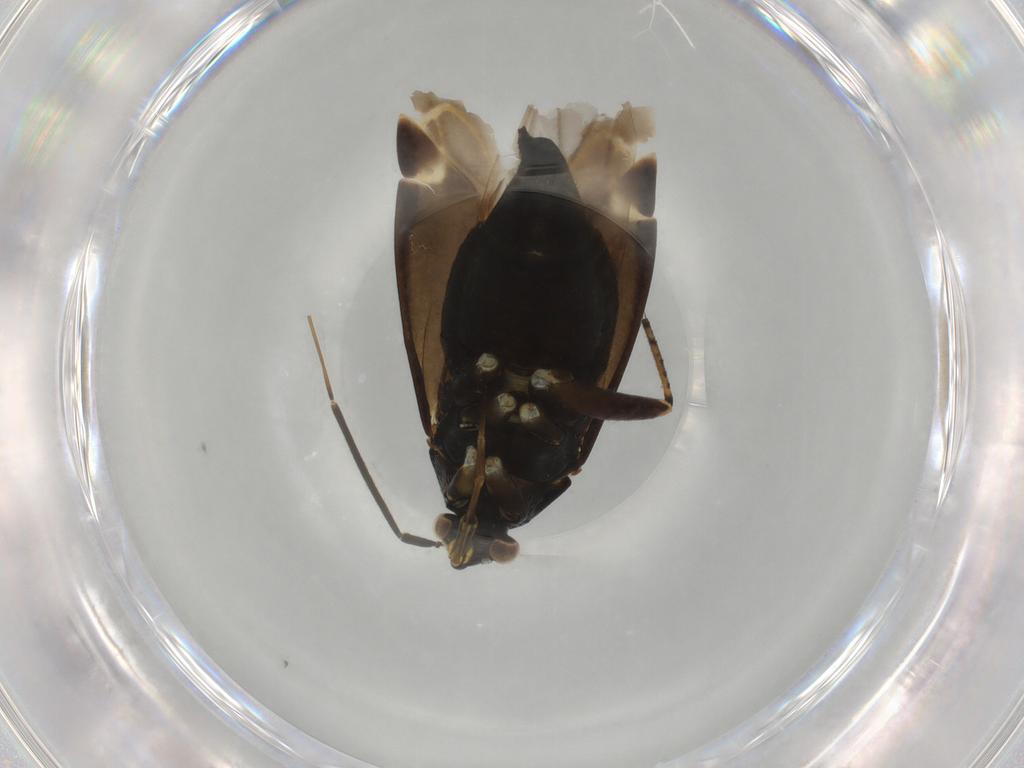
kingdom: Animalia
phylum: Arthropoda
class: Insecta
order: Hemiptera
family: Miridae
